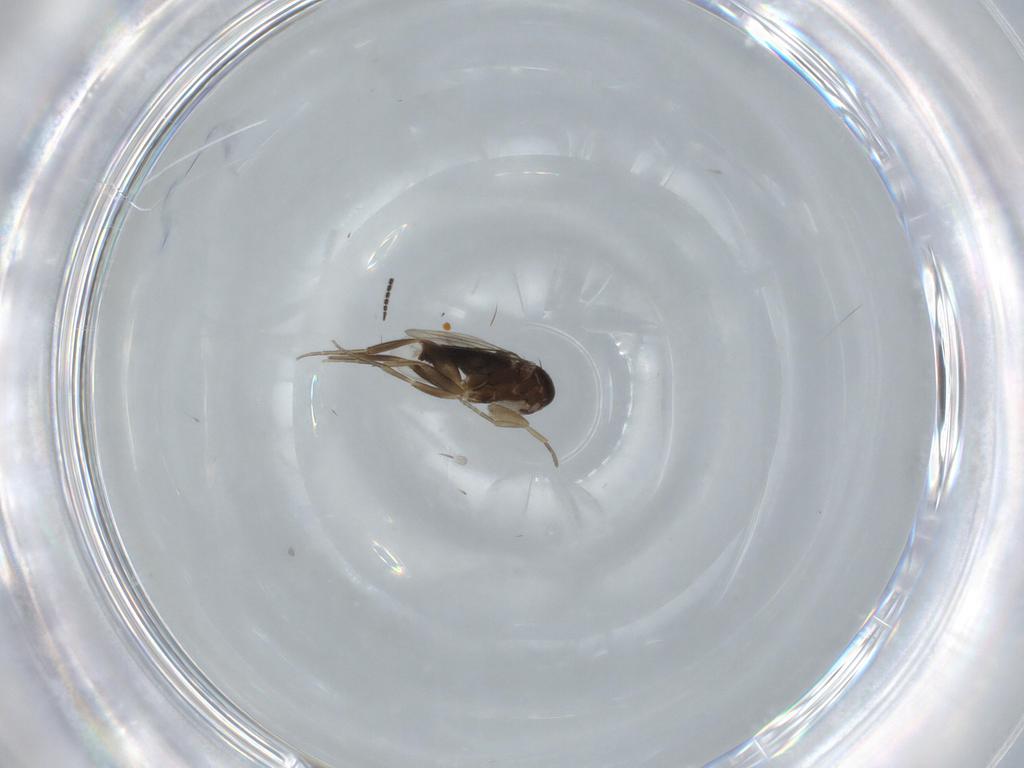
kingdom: Animalia
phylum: Arthropoda
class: Insecta
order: Diptera
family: Phoridae
